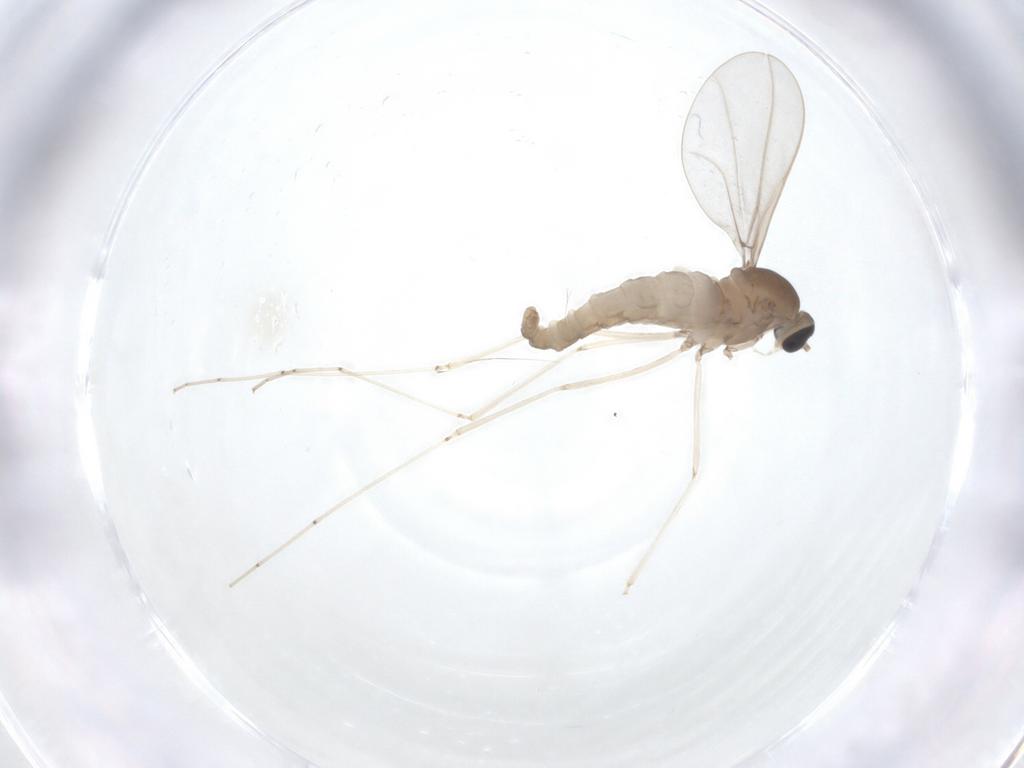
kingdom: Animalia
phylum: Arthropoda
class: Insecta
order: Diptera
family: Cecidomyiidae
